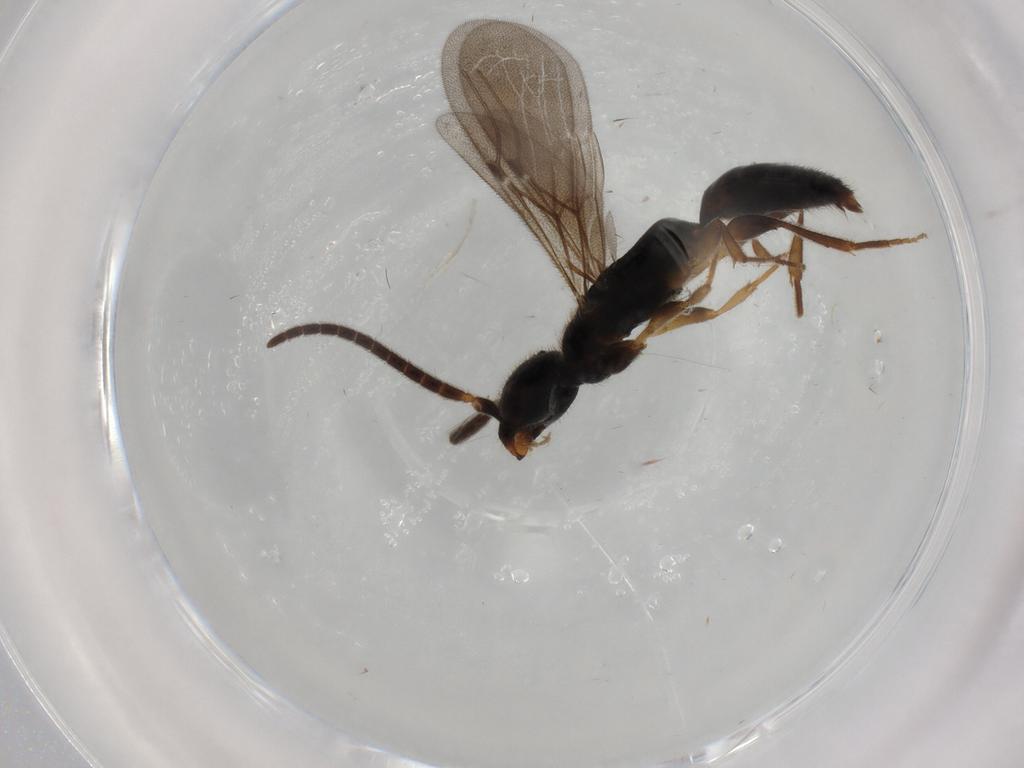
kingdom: Animalia
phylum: Arthropoda
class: Insecta
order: Hymenoptera
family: Bethylidae
